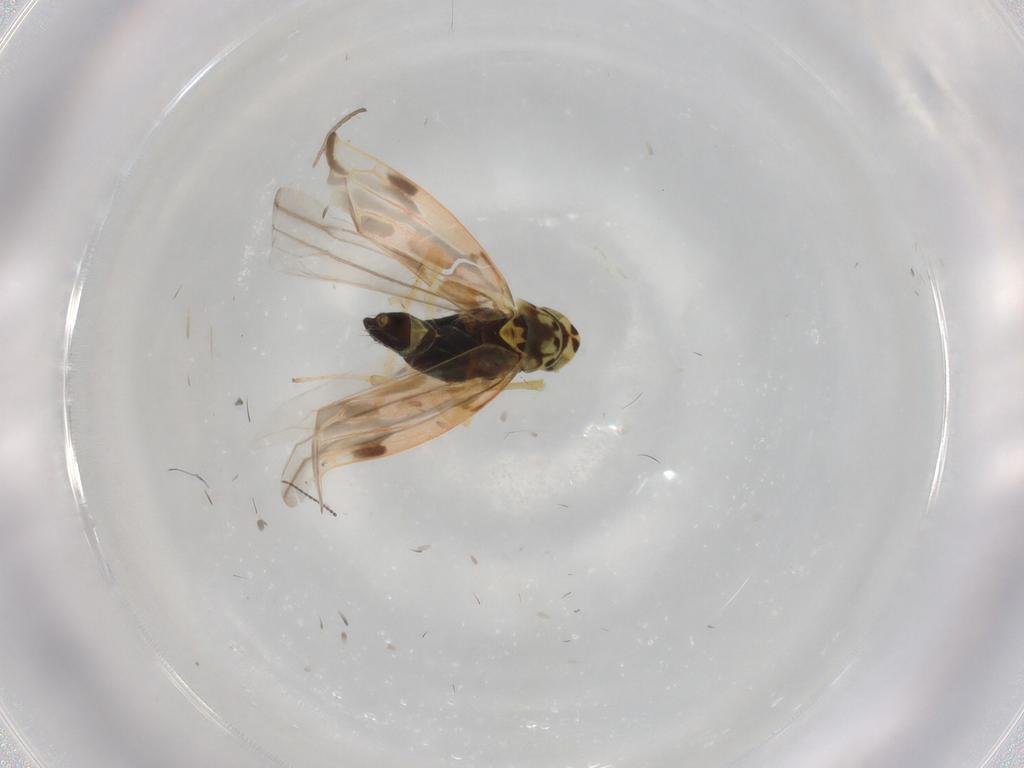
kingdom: Animalia
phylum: Arthropoda
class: Insecta
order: Hemiptera
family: Cicadellidae
